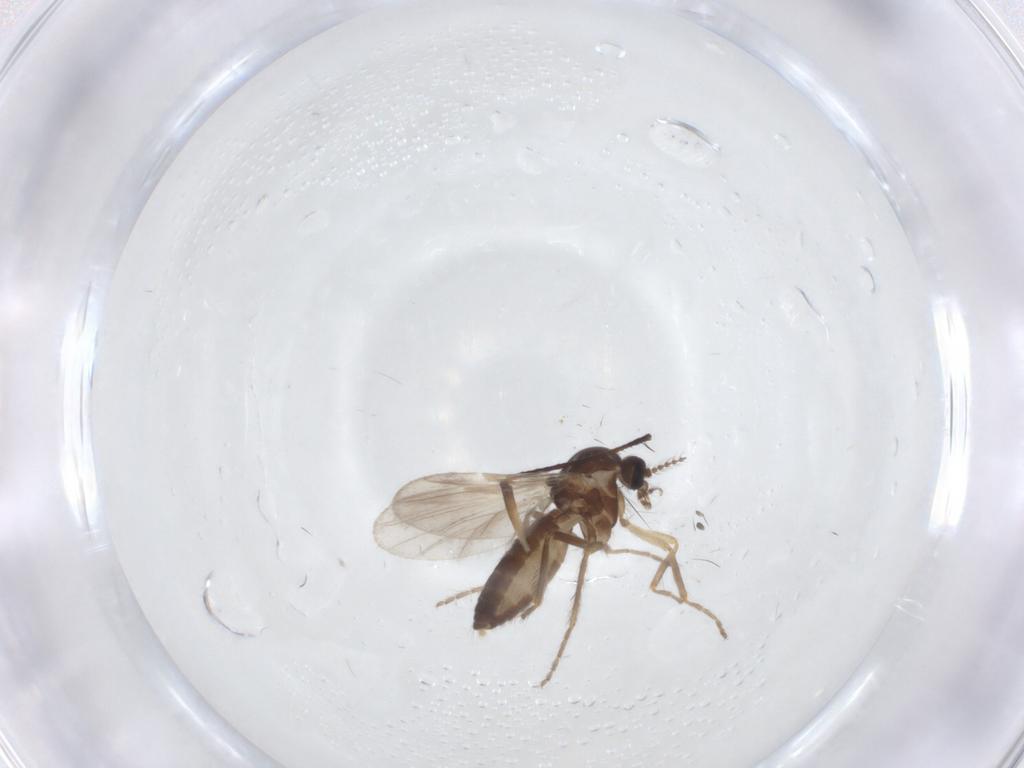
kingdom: Animalia
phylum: Arthropoda
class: Insecta
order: Diptera
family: Ceratopogonidae
